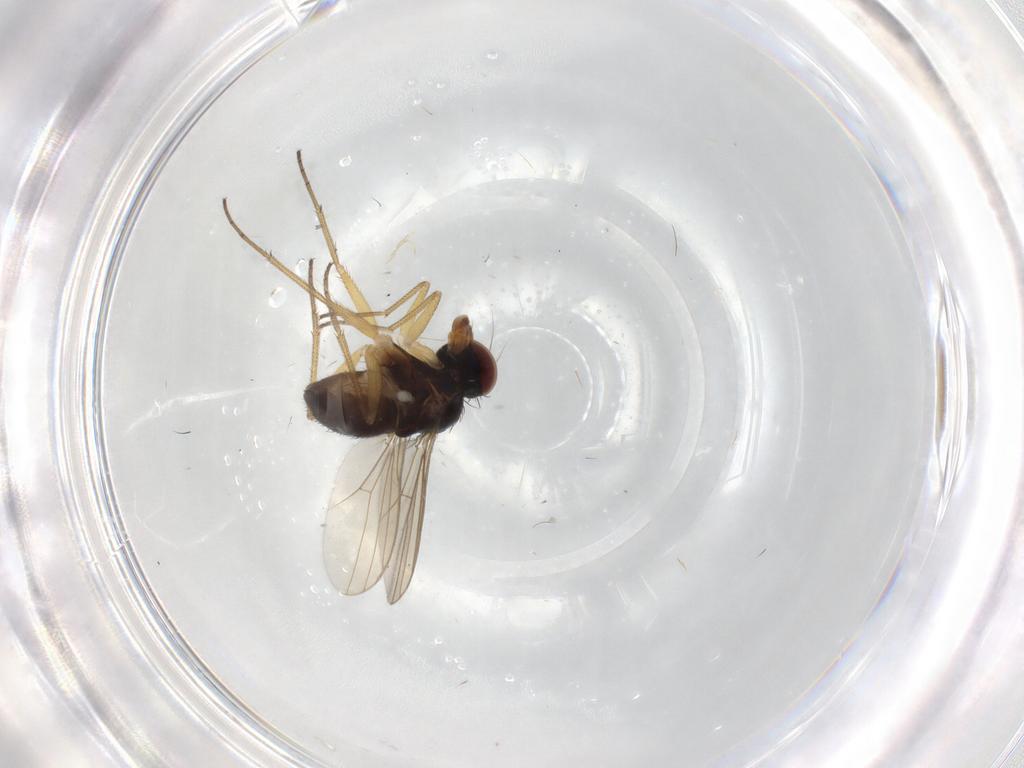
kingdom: Animalia
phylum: Arthropoda
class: Insecta
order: Diptera
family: Dolichopodidae
